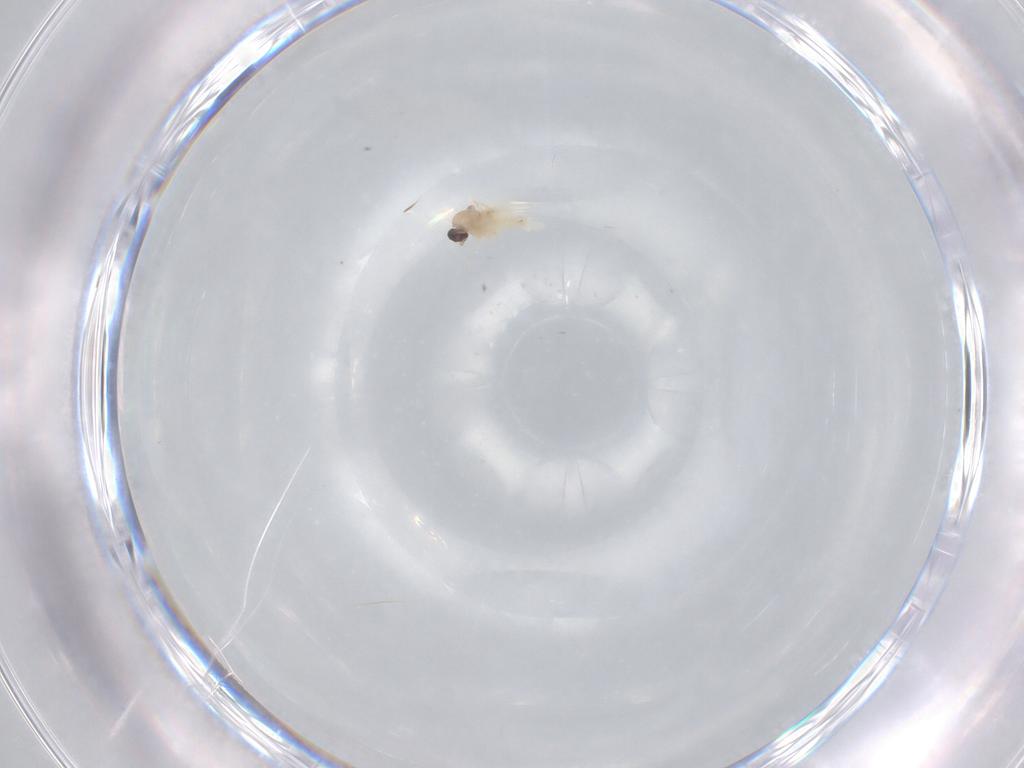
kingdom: Animalia
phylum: Arthropoda
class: Insecta
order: Diptera
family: Cecidomyiidae
